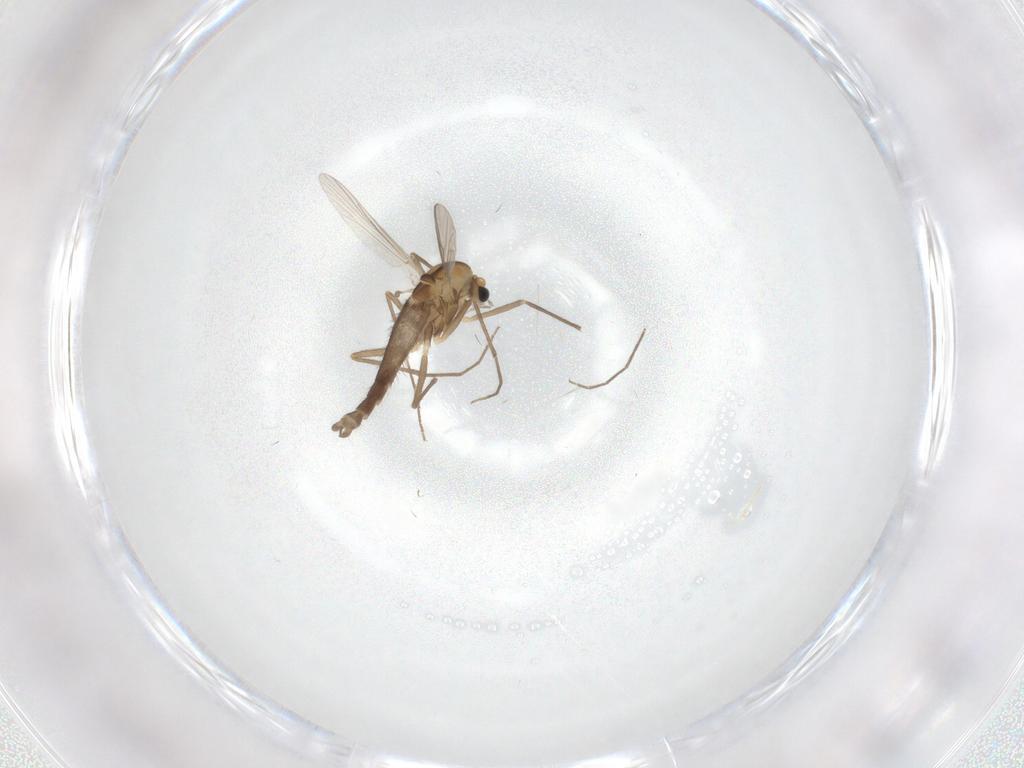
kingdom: Animalia
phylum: Arthropoda
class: Insecta
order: Diptera
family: Chironomidae
